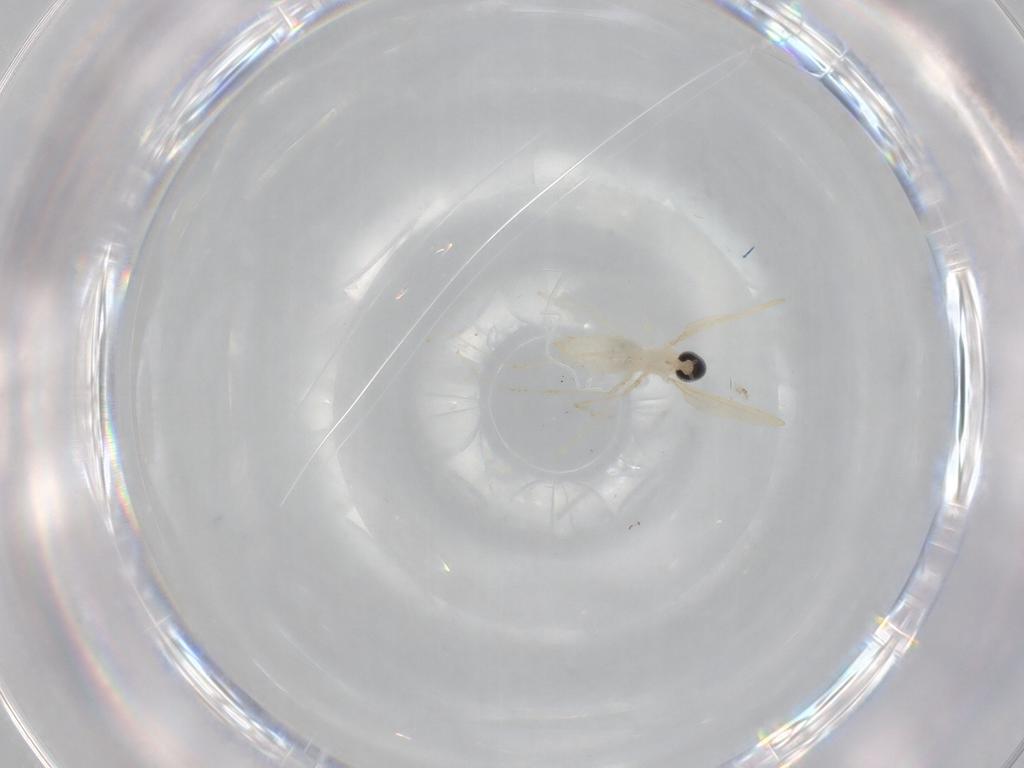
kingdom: Animalia
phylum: Arthropoda
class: Insecta
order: Diptera
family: Cecidomyiidae
